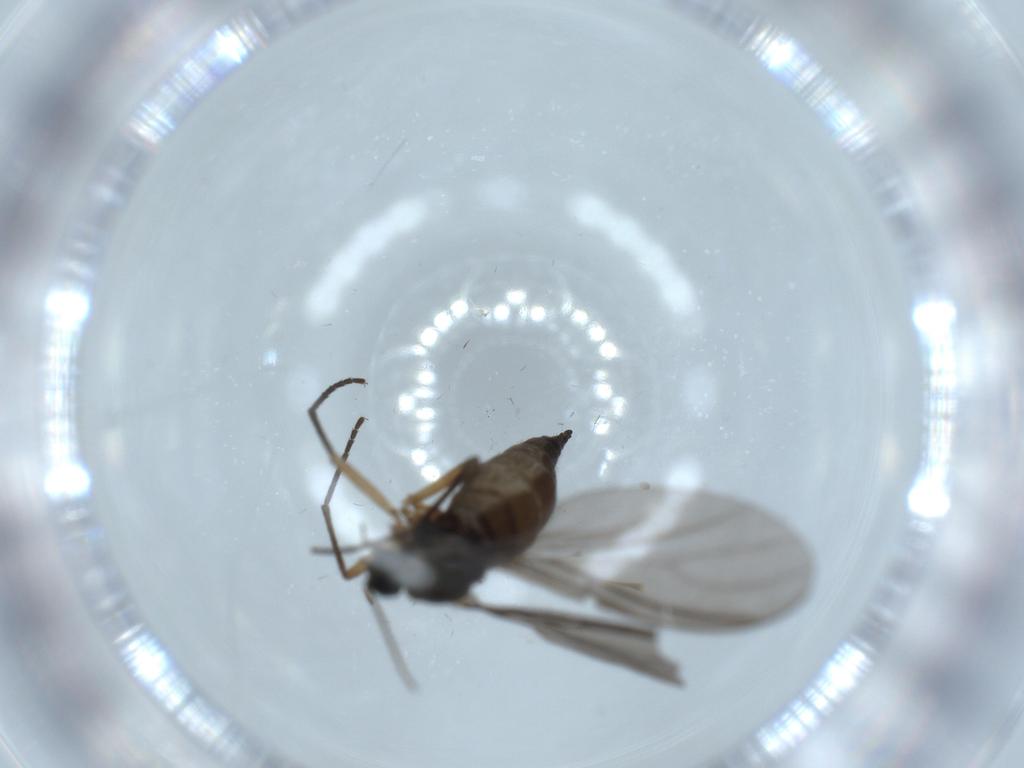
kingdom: Animalia
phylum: Arthropoda
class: Insecta
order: Diptera
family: Sciaridae
